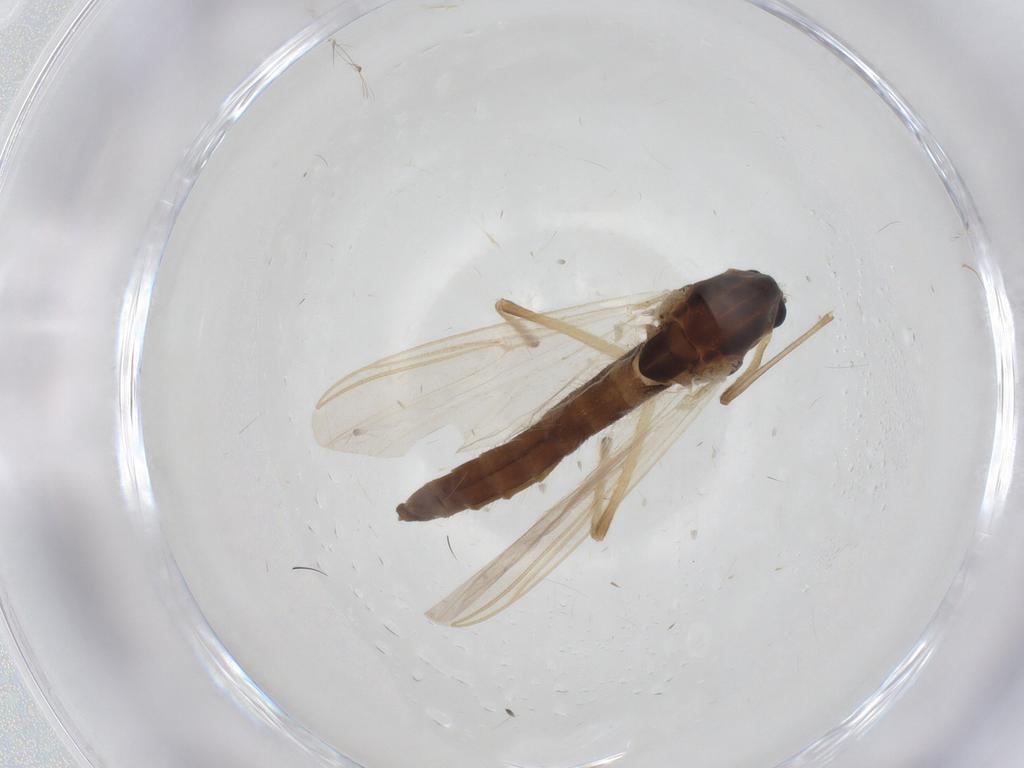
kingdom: Animalia
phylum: Arthropoda
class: Insecta
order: Diptera
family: Chironomidae
